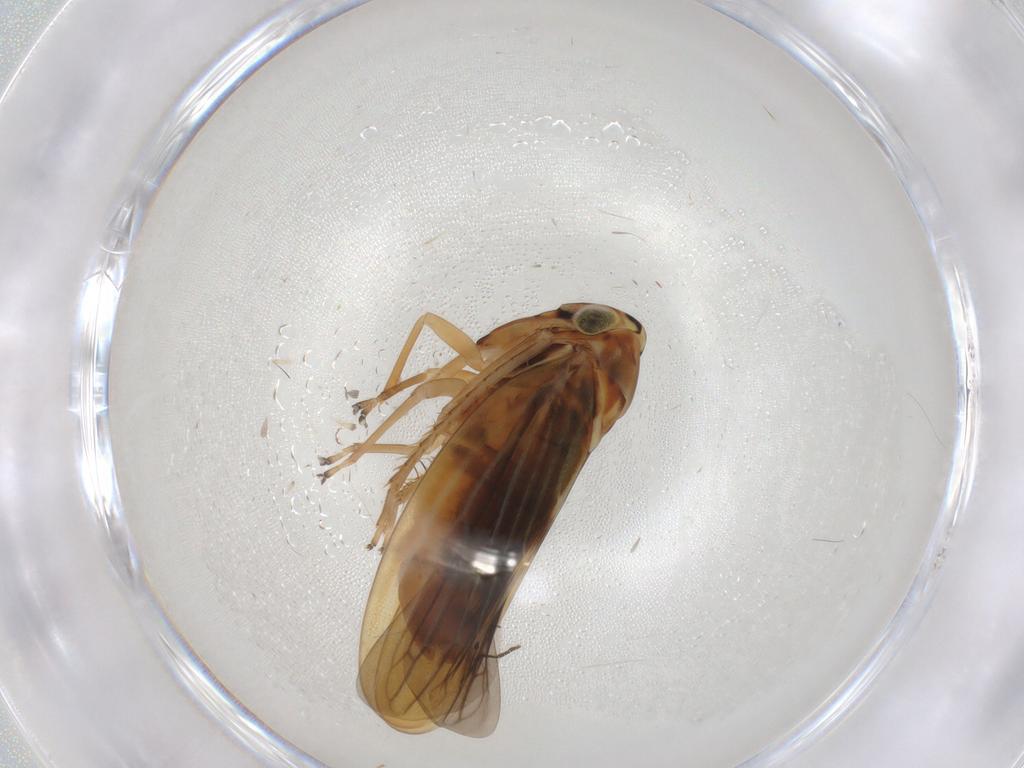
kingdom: Animalia
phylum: Arthropoda
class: Insecta
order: Hemiptera
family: Cicadellidae
